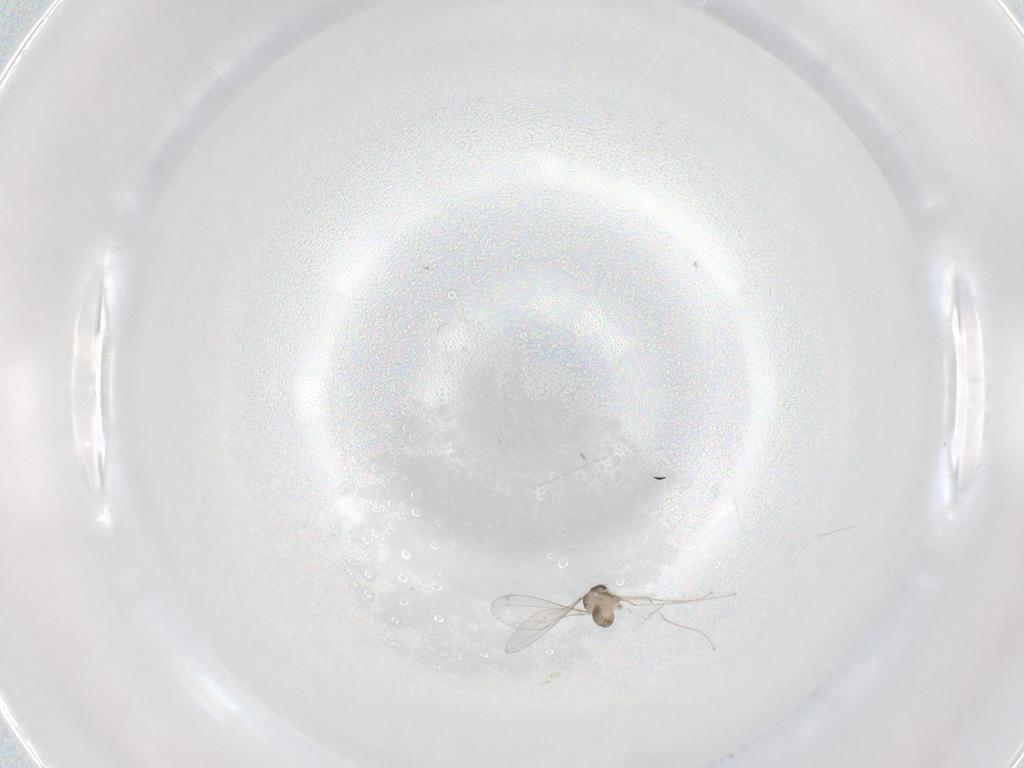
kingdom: Animalia
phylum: Arthropoda
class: Insecta
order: Diptera
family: Cecidomyiidae
